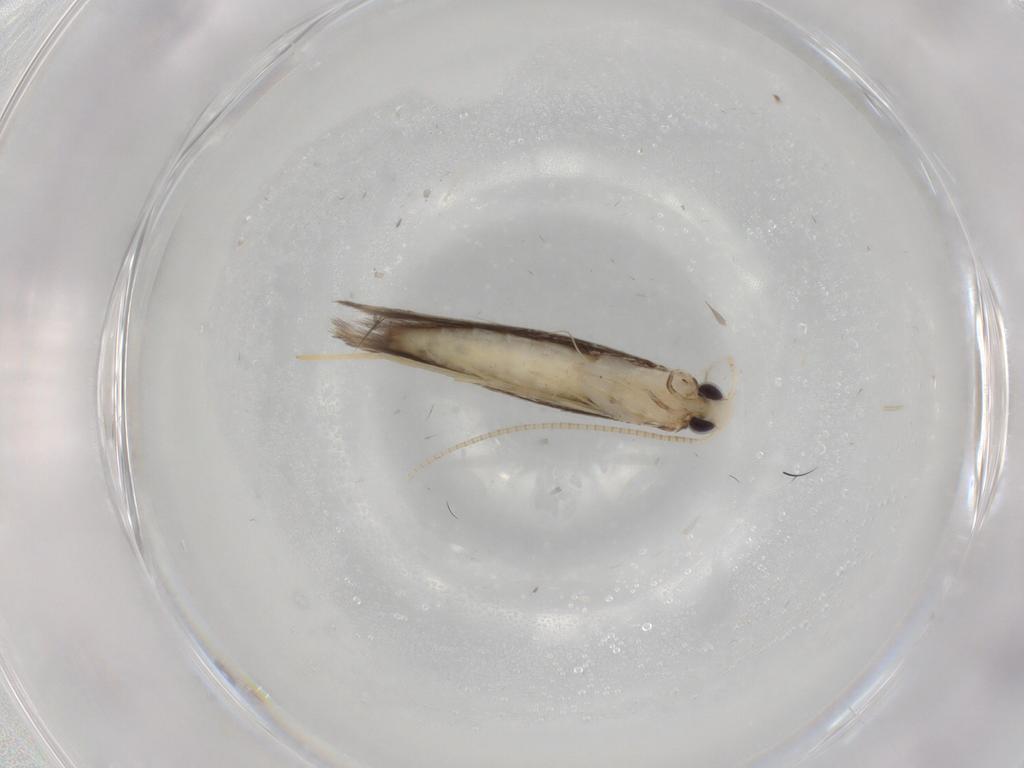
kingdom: Animalia
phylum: Arthropoda
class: Insecta
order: Lepidoptera
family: Gracillariidae
